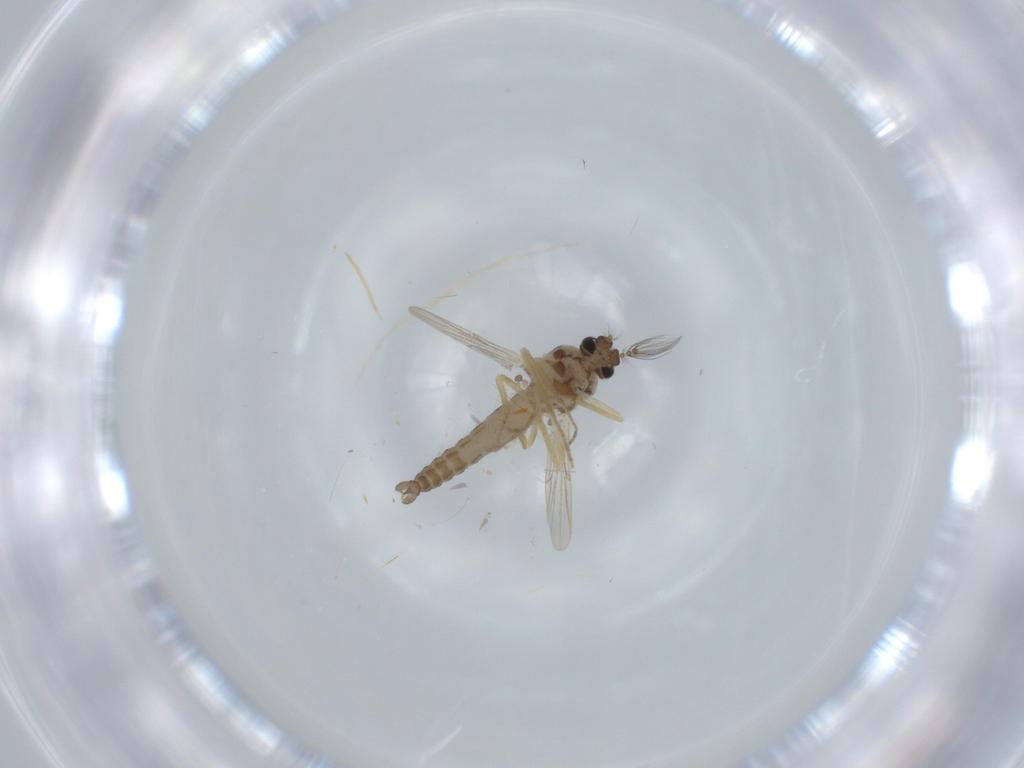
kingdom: Animalia
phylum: Arthropoda
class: Insecta
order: Diptera
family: Ceratopogonidae
